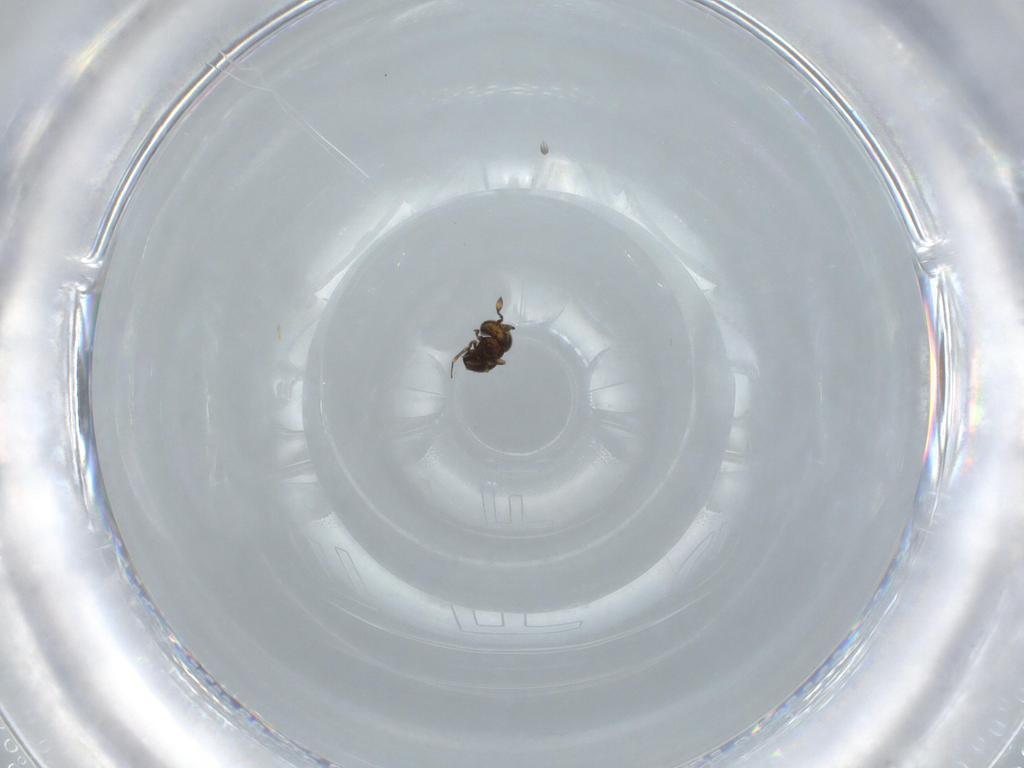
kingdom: Animalia
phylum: Arthropoda
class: Insecta
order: Hymenoptera
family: Scelionidae
